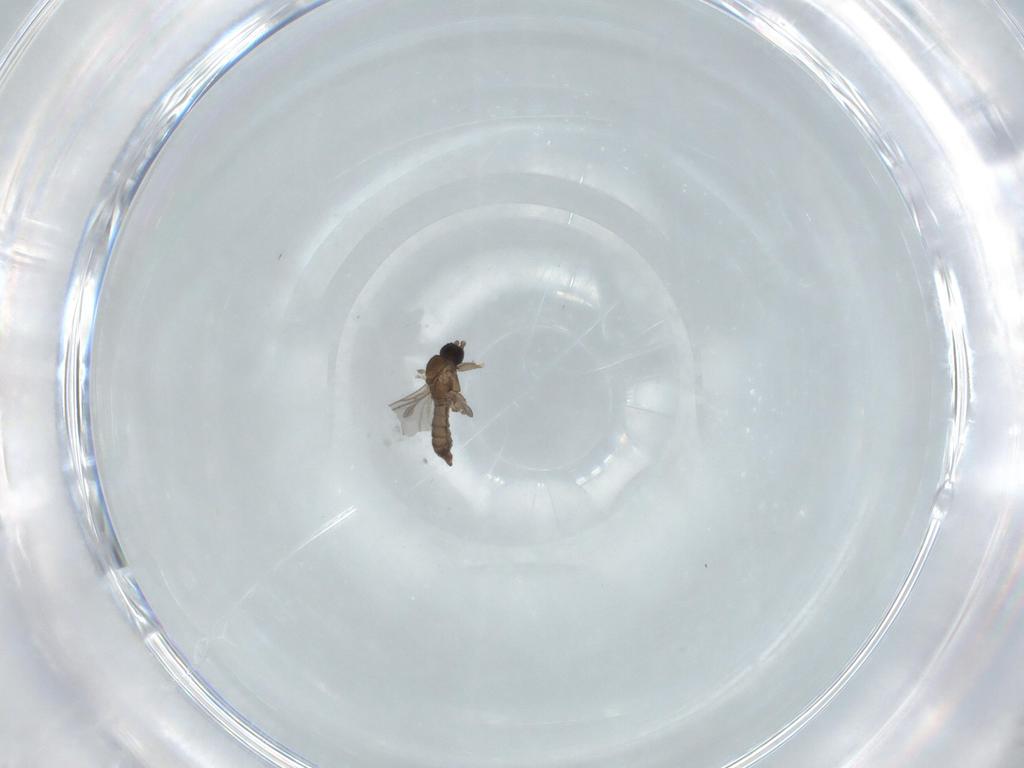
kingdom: Animalia
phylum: Arthropoda
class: Insecta
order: Diptera
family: Sciaridae
